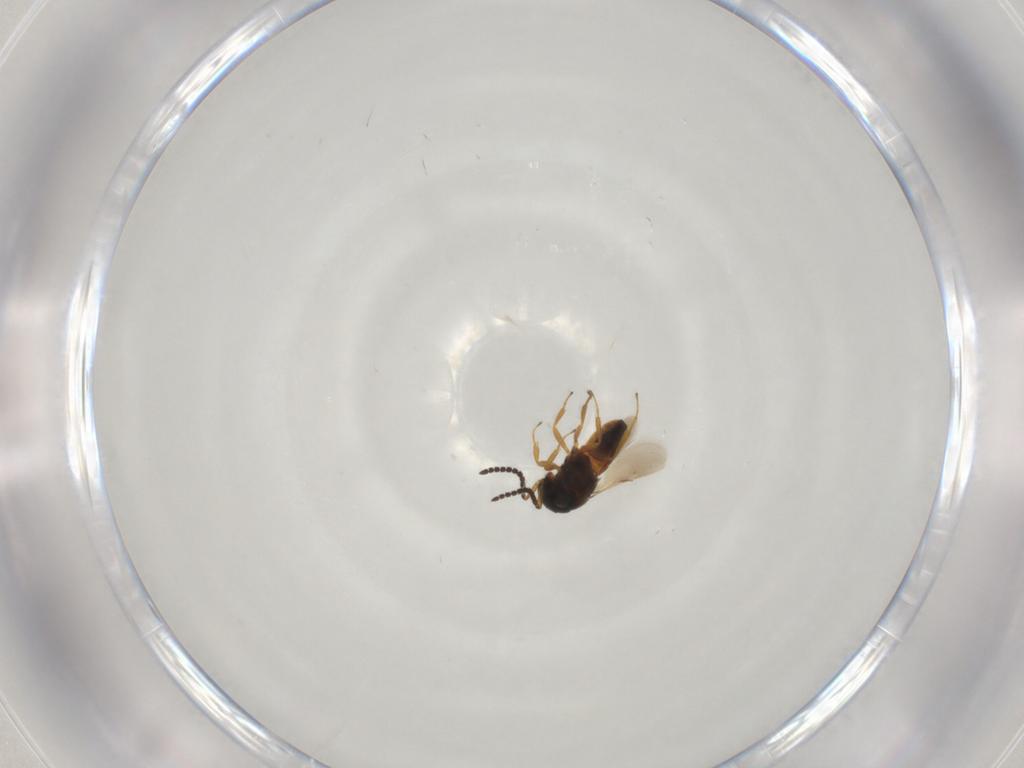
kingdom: Animalia
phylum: Arthropoda
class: Insecta
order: Hymenoptera
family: Scelionidae
